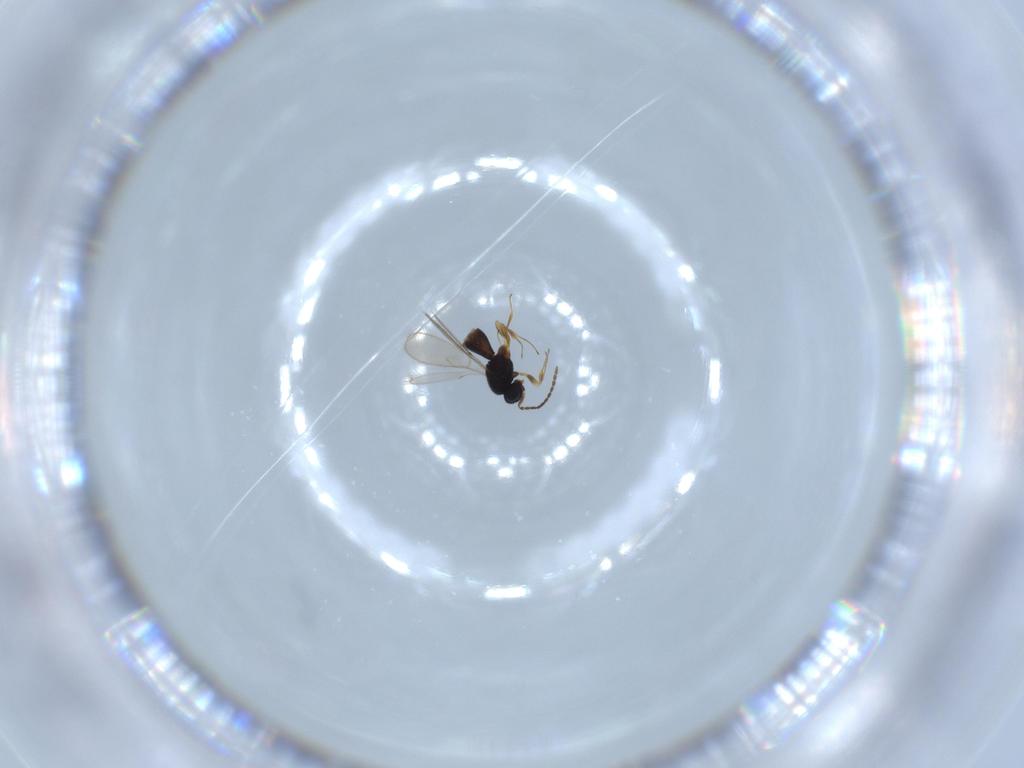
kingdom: Animalia
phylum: Arthropoda
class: Insecta
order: Hymenoptera
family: Scelionidae
